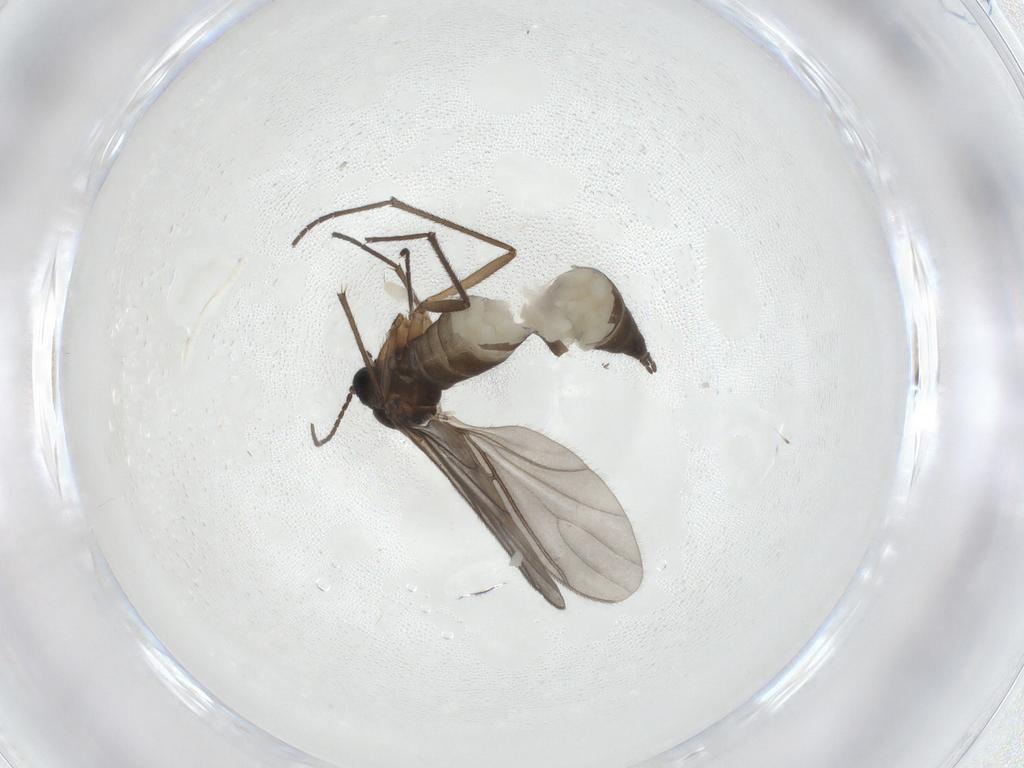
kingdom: Animalia
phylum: Arthropoda
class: Insecta
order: Diptera
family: Sciaridae
